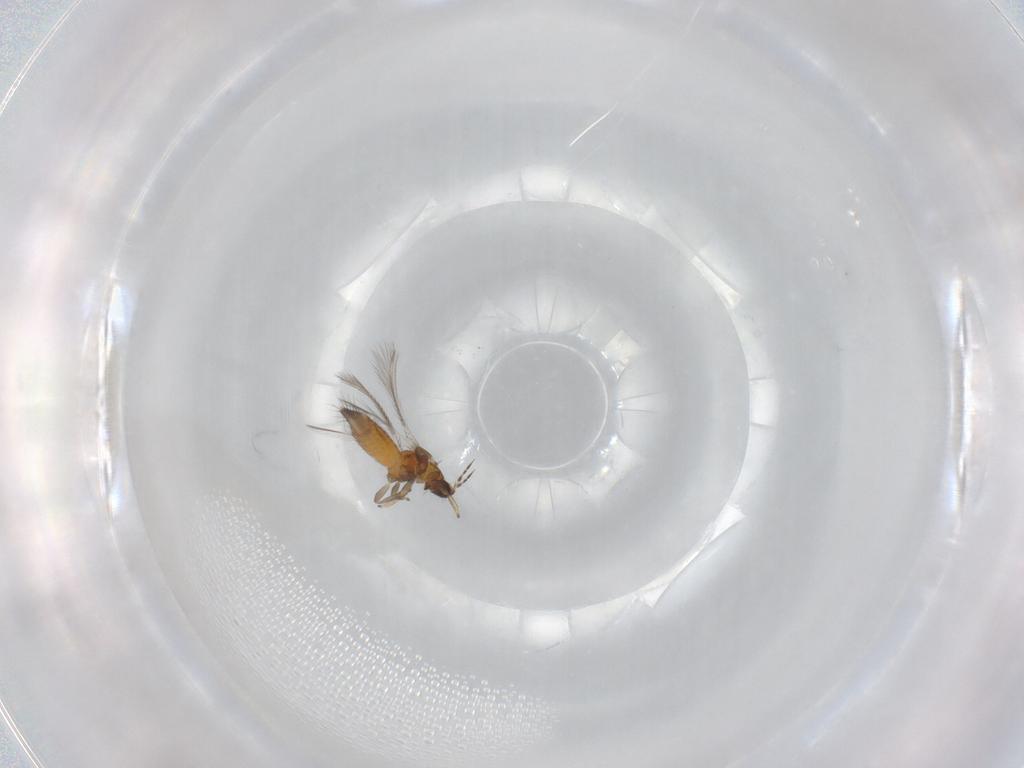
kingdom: Animalia
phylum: Arthropoda
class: Insecta
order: Thysanoptera
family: Thripidae
